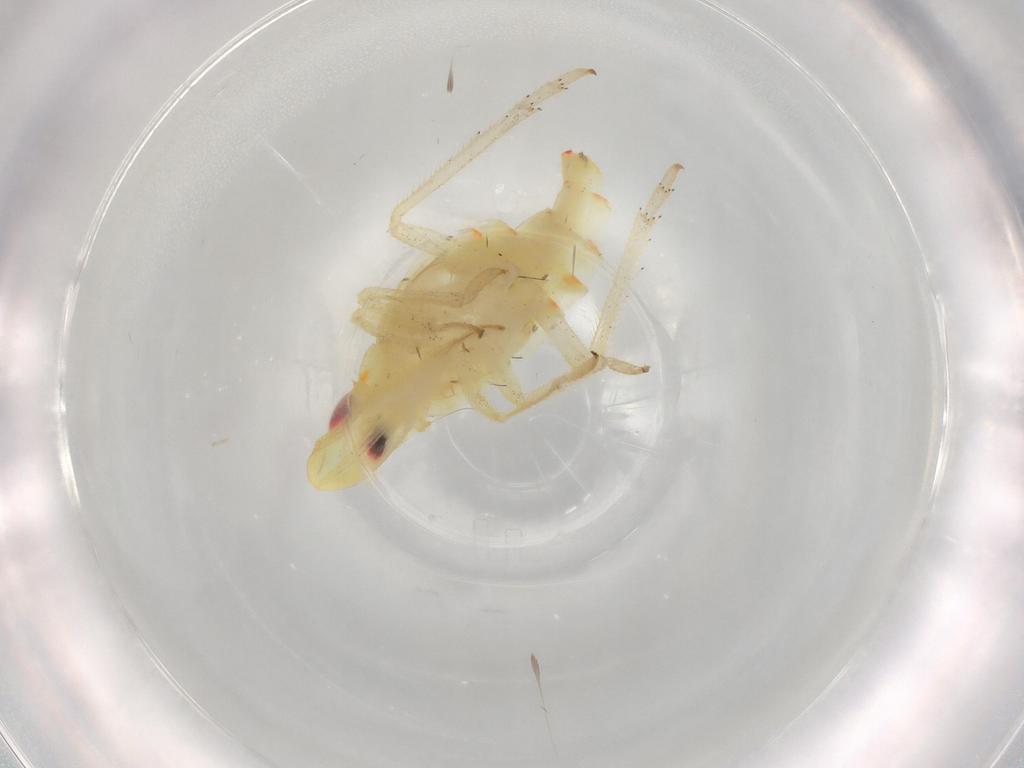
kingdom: Animalia
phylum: Arthropoda
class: Insecta
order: Hemiptera
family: Tropiduchidae
